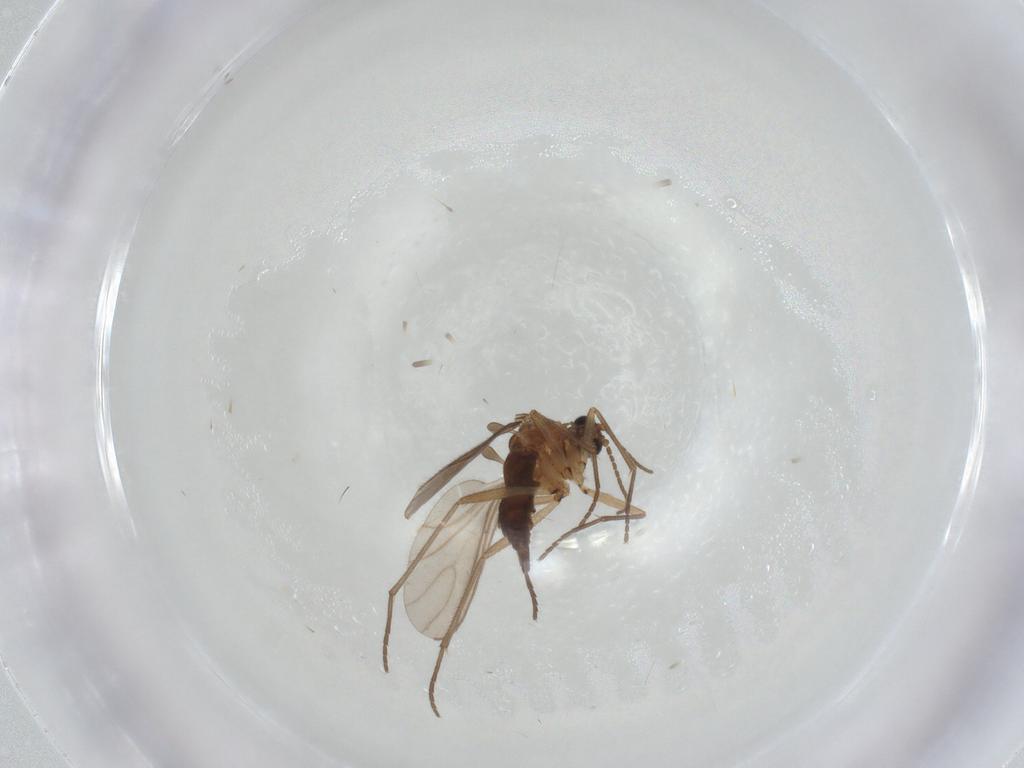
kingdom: Animalia
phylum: Arthropoda
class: Insecta
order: Diptera
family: Sciaridae
